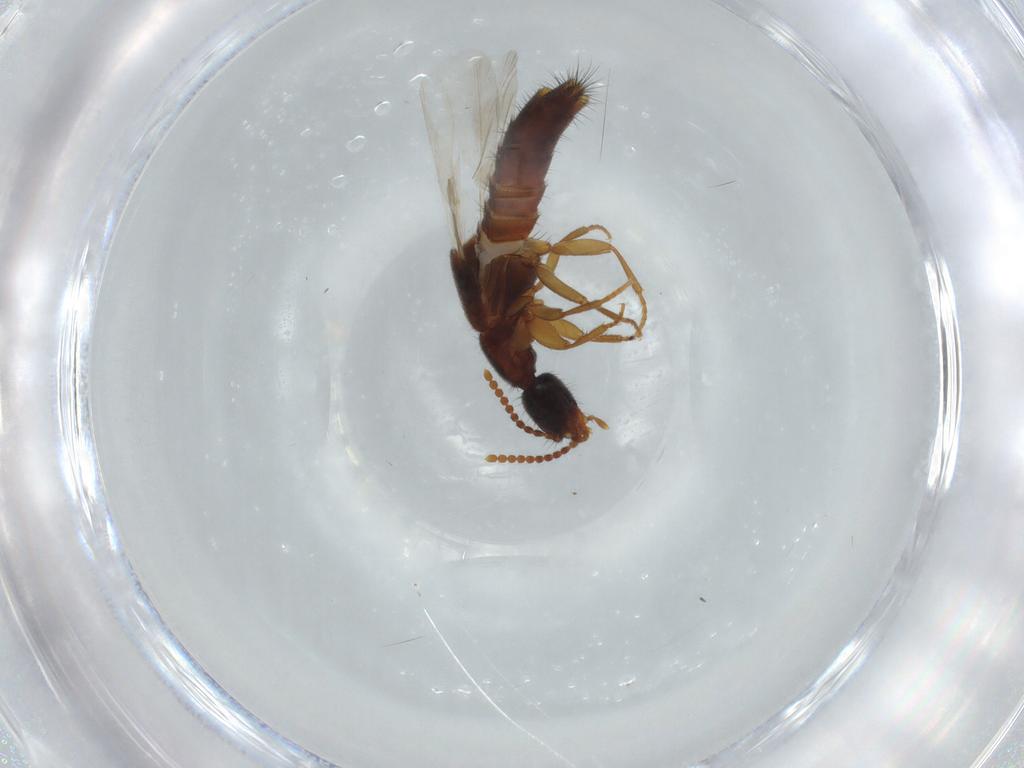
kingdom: Animalia
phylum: Arthropoda
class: Insecta
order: Coleoptera
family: Staphylinidae
